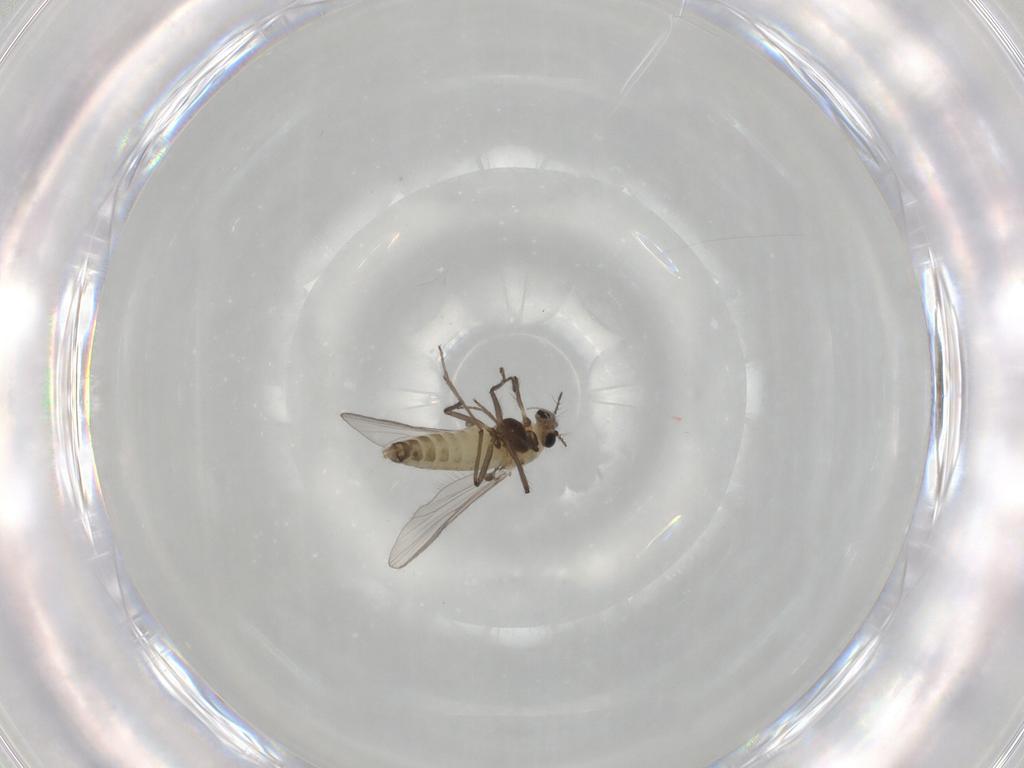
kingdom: Animalia
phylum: Arthropoda
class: Insecta
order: Diptera
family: Chironomidae
